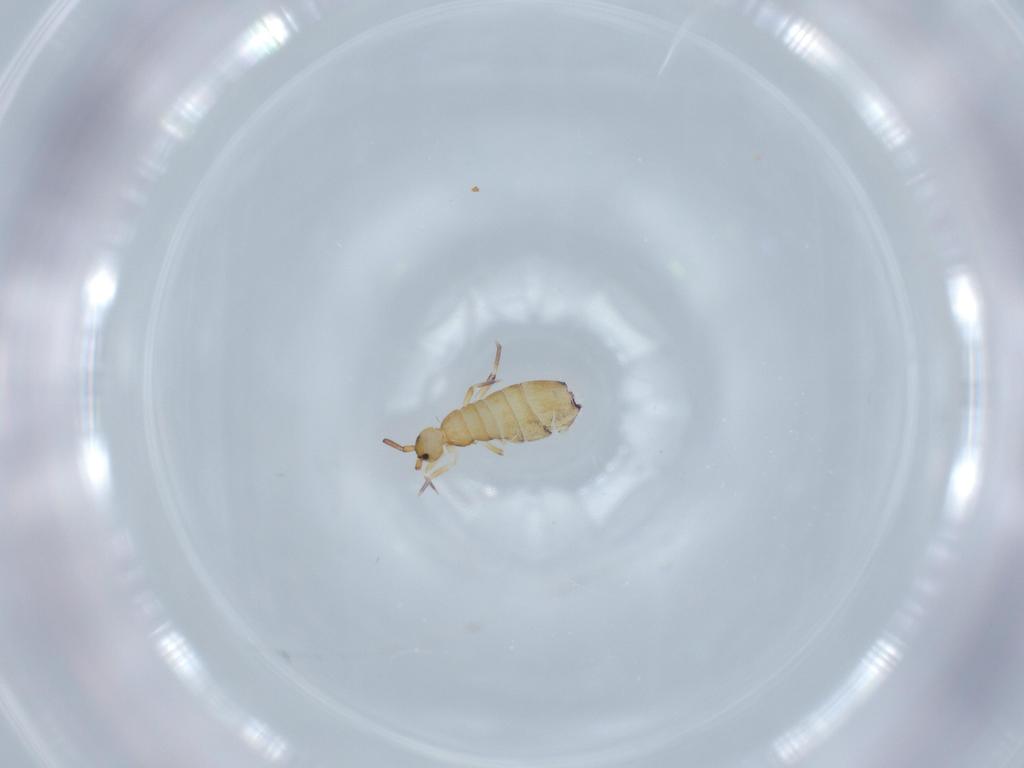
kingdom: Animalia
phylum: Arthropoda
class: Collembola
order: Entomobryomorpha
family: Entomobryidae
